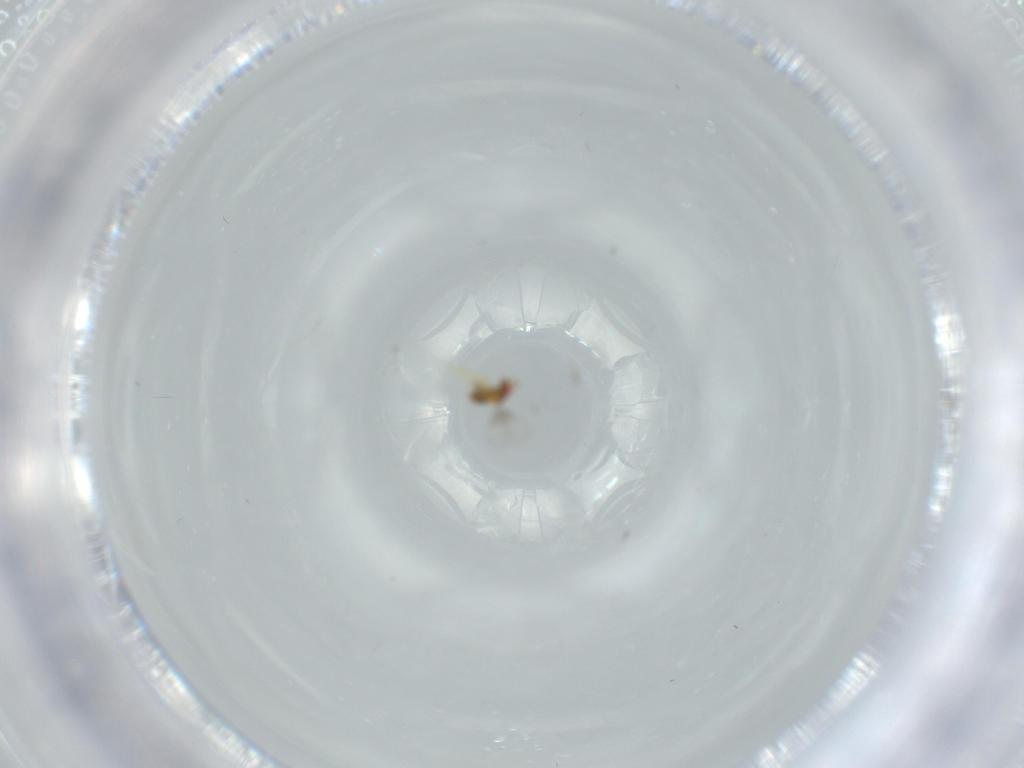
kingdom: Animalia
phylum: Arthropoda
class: Insecta
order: Hymenoptera
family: Trichogrammatidae
